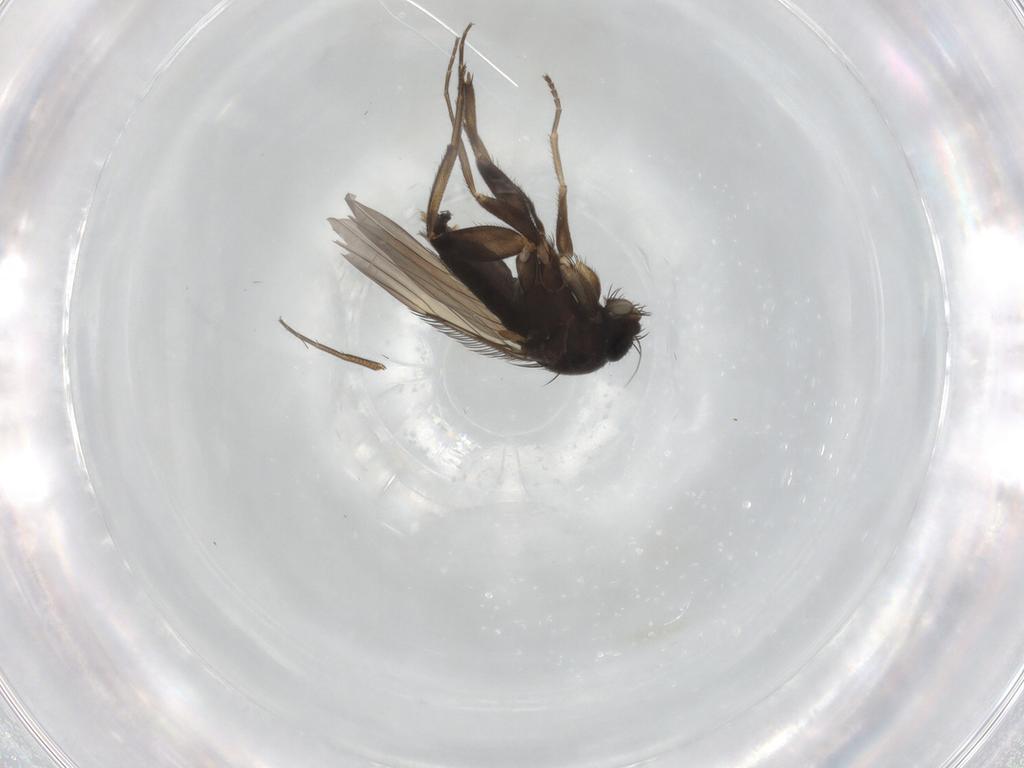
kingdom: Animalia
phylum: Arthropoda
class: Insecta
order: Diptera
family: Phoridae
